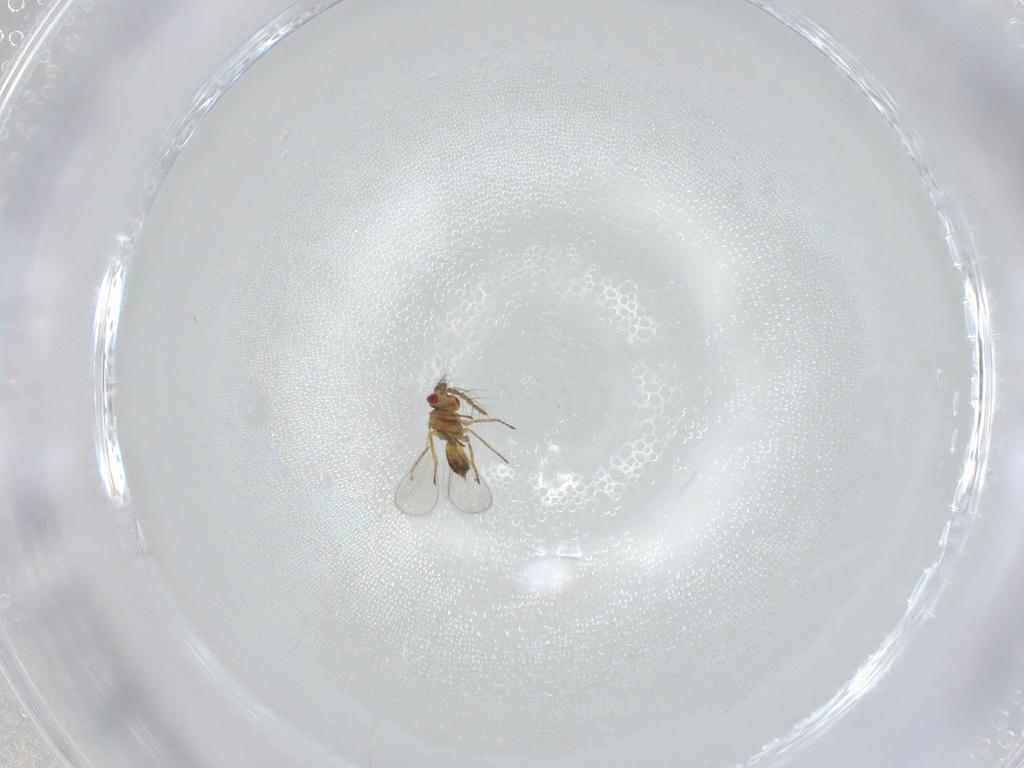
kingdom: Animalia
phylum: Arthropoda
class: Insecta
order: Hymenoptera
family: Eulophidae
